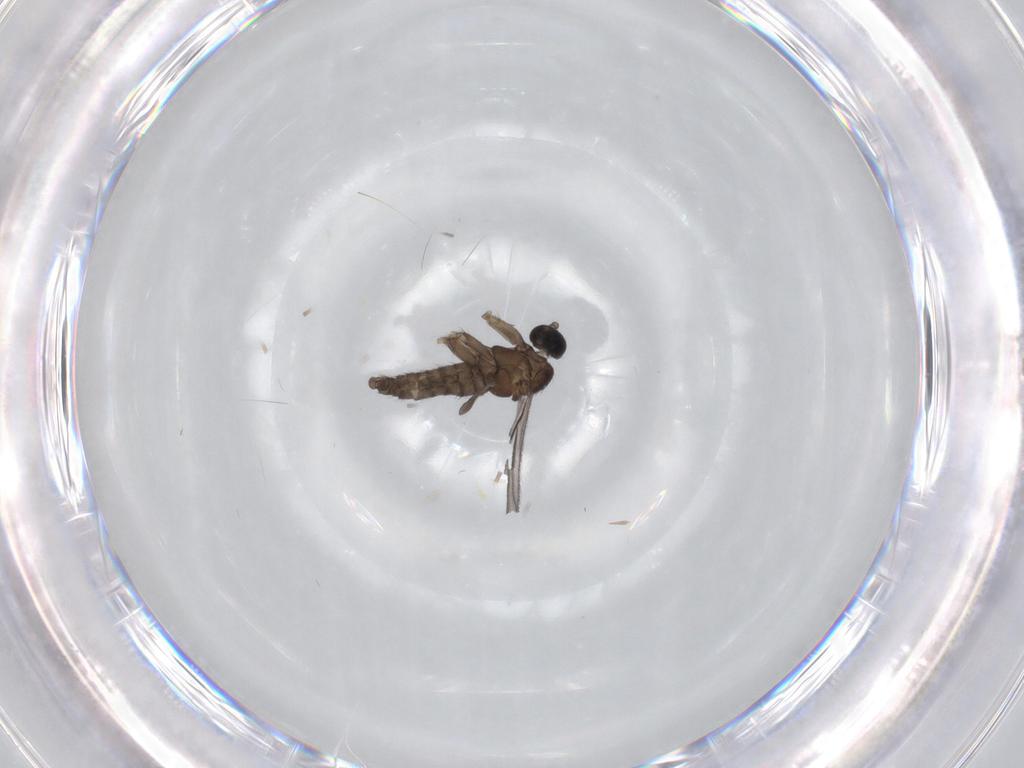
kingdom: Animalia
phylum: Arthropoda
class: Insecta
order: Diptera
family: Sciaridae
